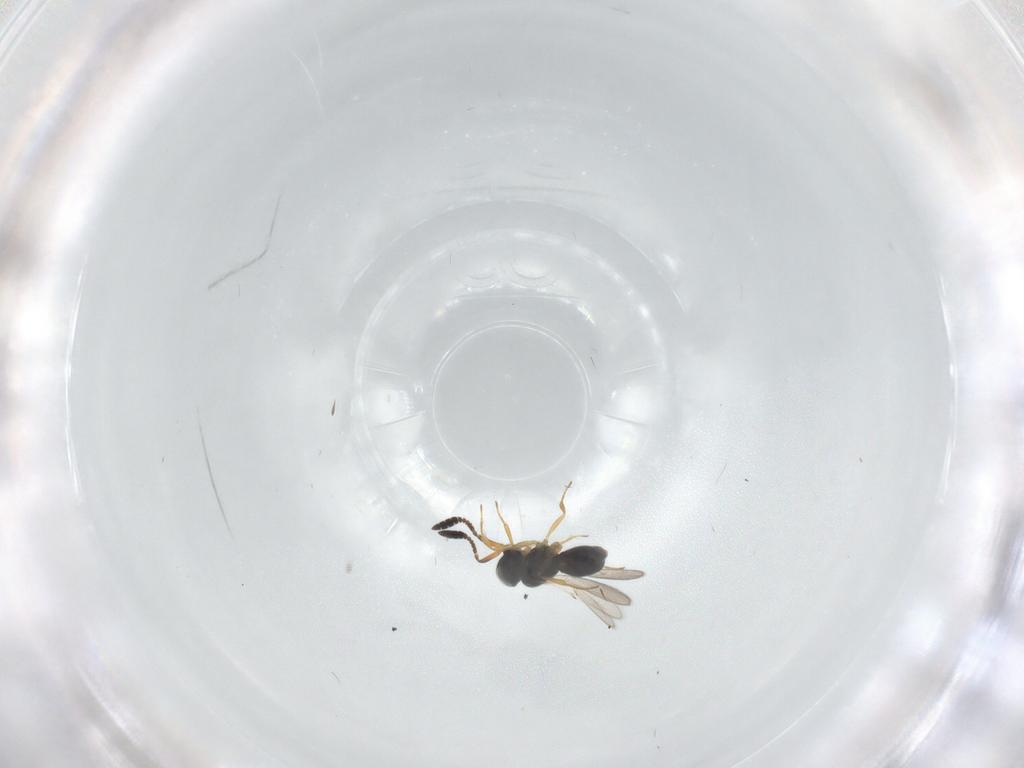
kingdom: Animalia
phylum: Arthropoda
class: Insecta
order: Hymenoptera
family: Scelionidae
